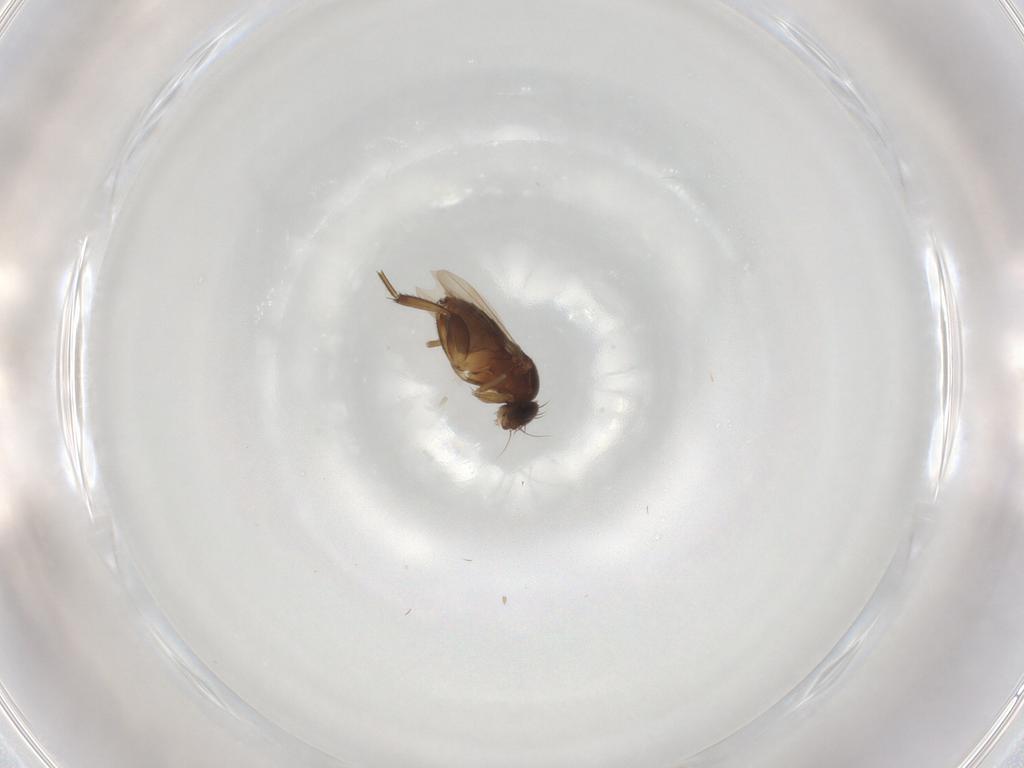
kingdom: Animalia
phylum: Arthropoda
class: Insecta
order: Diptera
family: Phoridae
